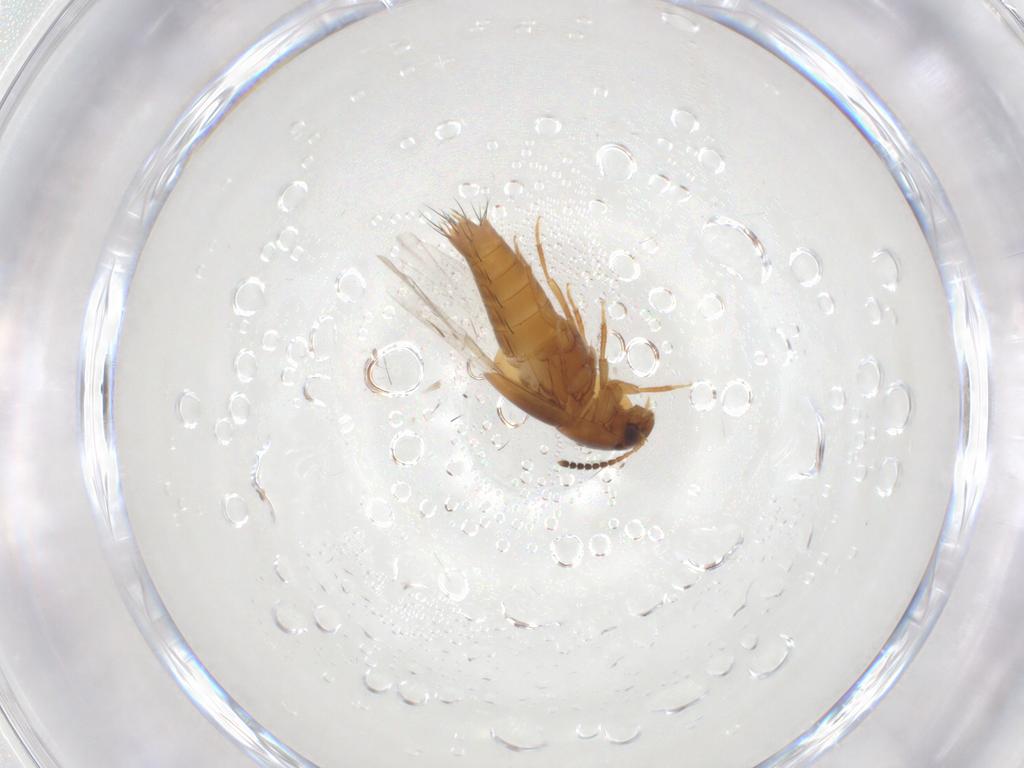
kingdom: Animalia
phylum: Arthropoda
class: Insecta
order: Coleoptera
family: Staphylinidae
